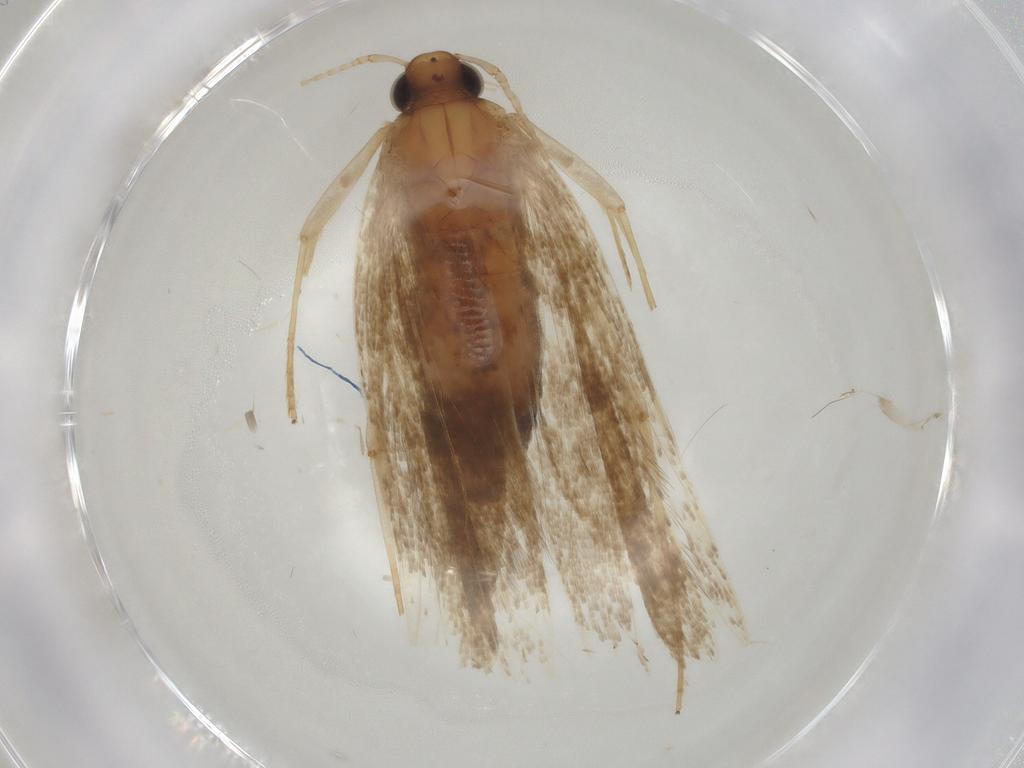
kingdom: Animalia
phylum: Arthropoda
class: Insecta
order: Lepidoptera
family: Lecithoceridae
